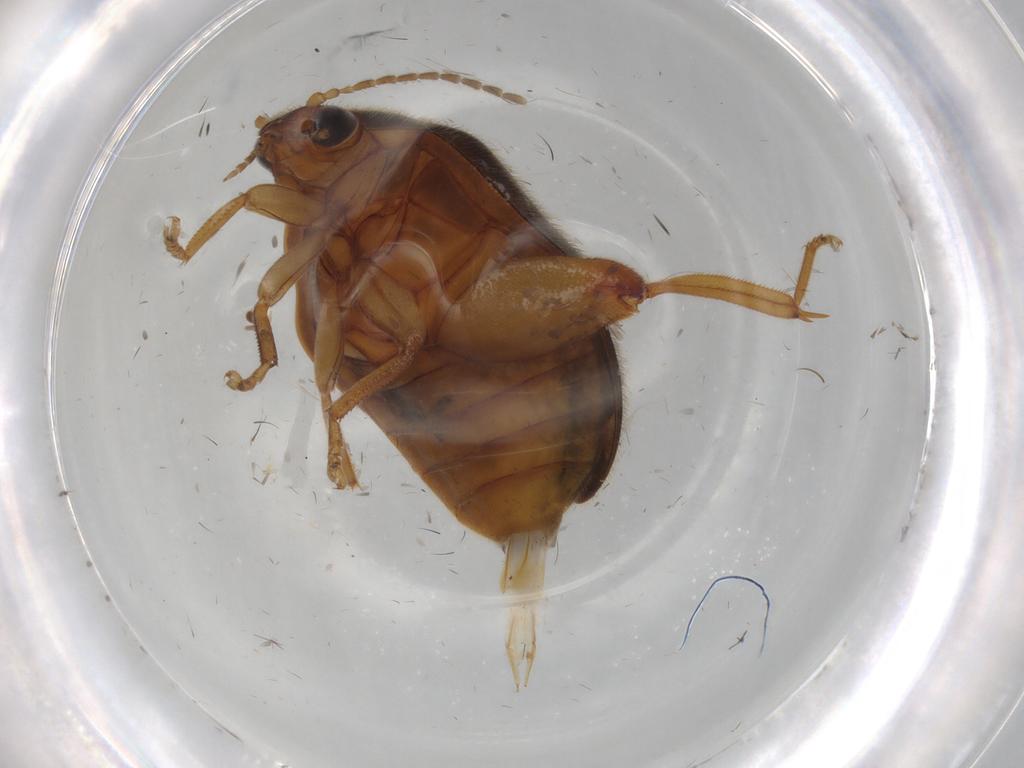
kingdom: Animalia
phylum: Arthropoda
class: Insecta
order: Coleoptera
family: Scirtidae
